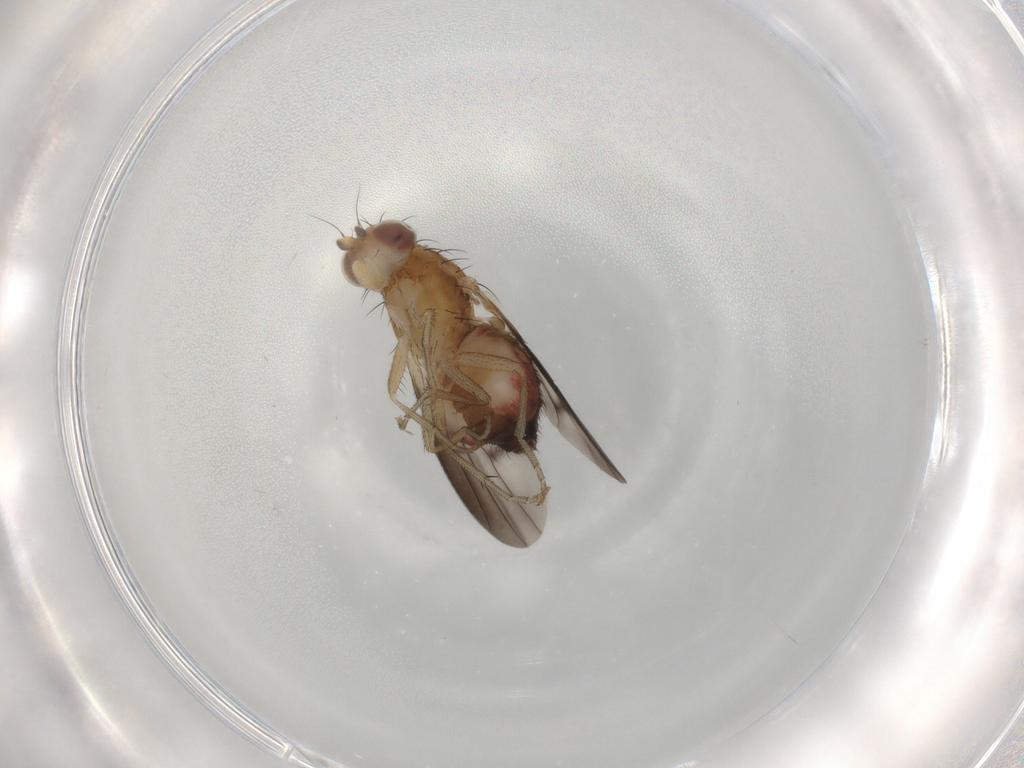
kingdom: Animalia
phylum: Arthropoda
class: Insecta
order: Diptera
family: Heleomyzidae
